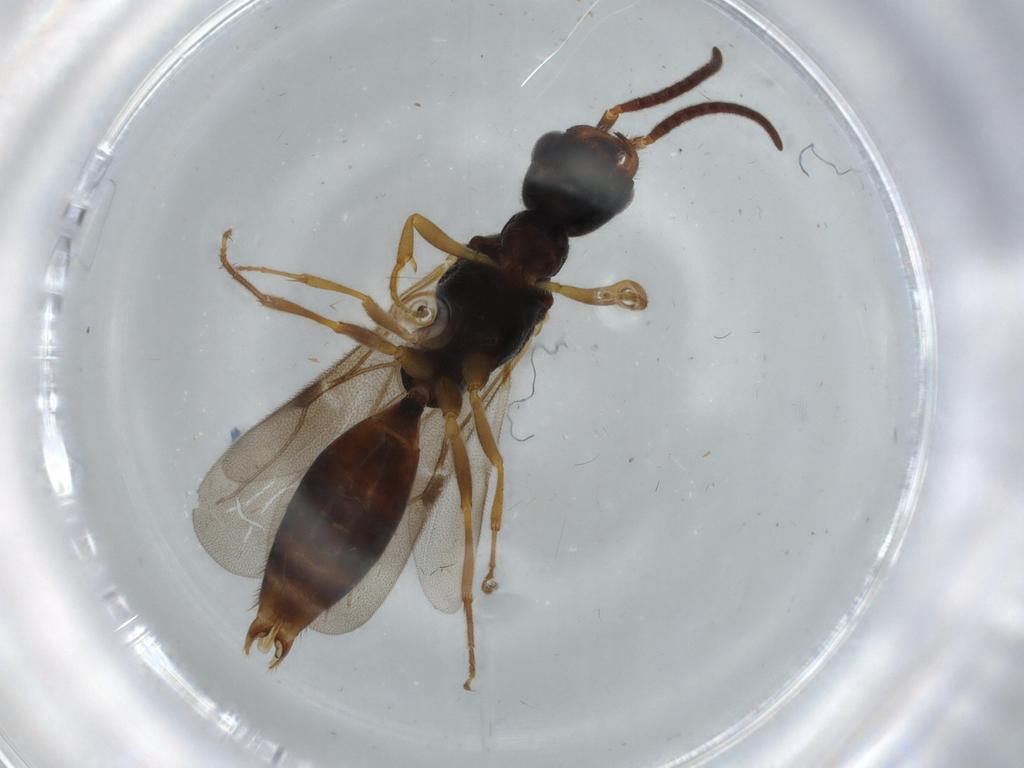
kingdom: Animalia
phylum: Arthropoda
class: Insecta
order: Hymenoptera
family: Bethylidae
